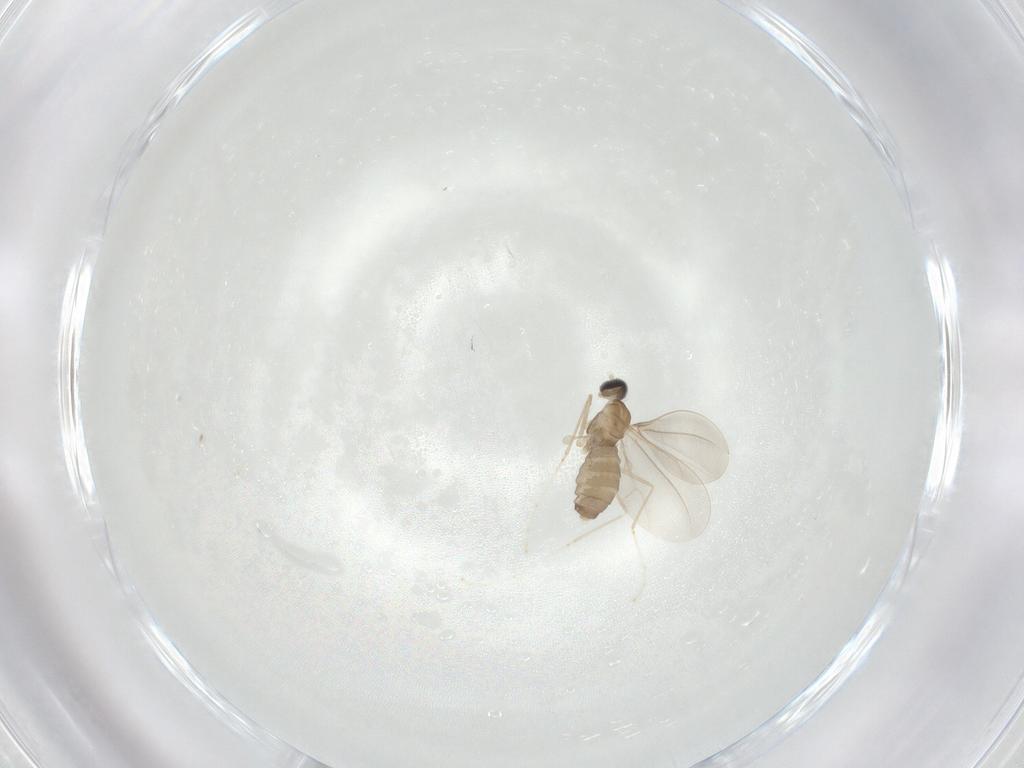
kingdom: Animalia
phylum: Arthropoda
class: Insecta
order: Diptera
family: Cecidomyiidae
